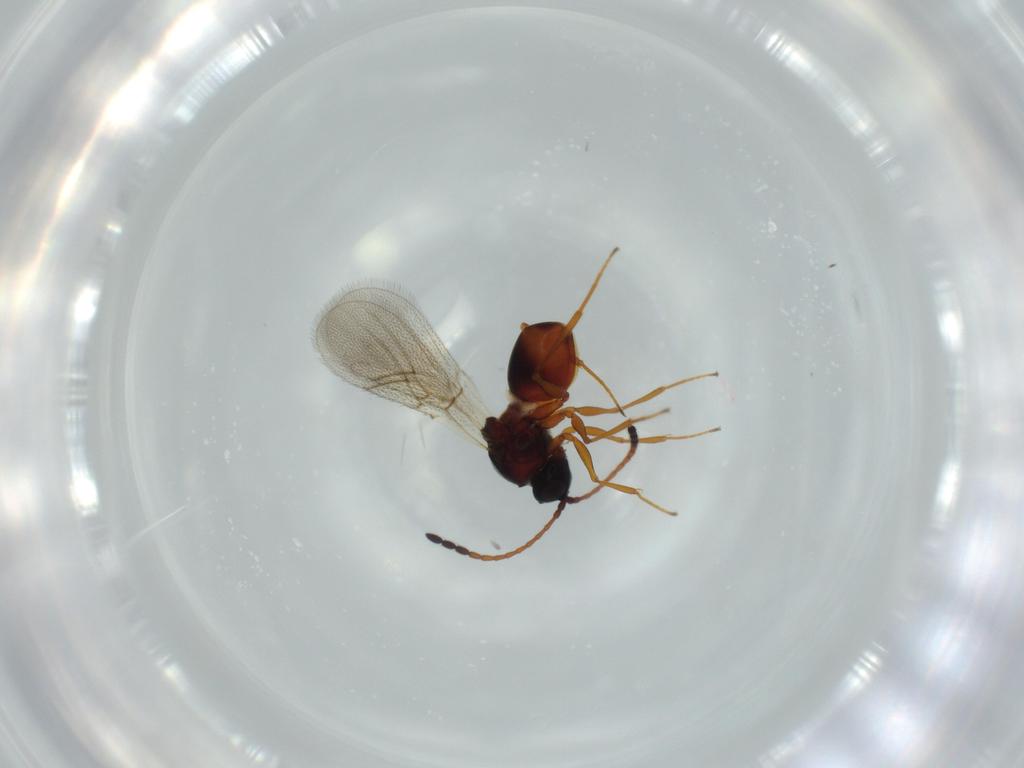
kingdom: Animalia
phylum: Arthropoda
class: Insecta
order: Hymenoptera
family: Figitidae
